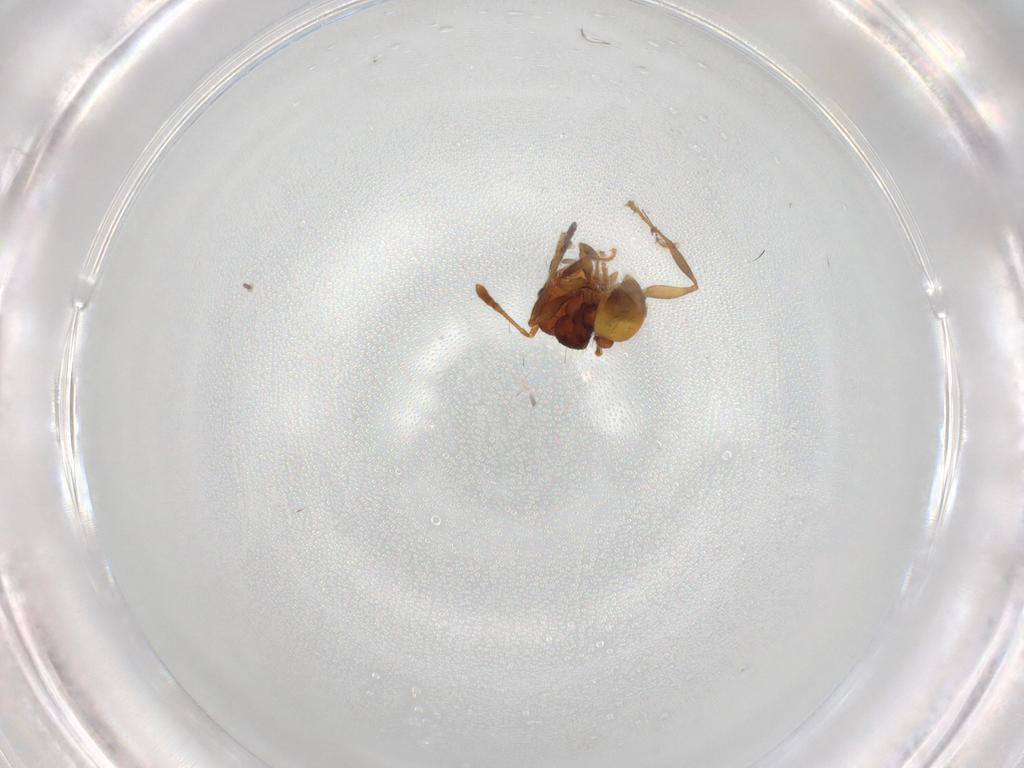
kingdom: Animalia
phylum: Arthropoda
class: Insecta
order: Hymenoptera
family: Formicidae
